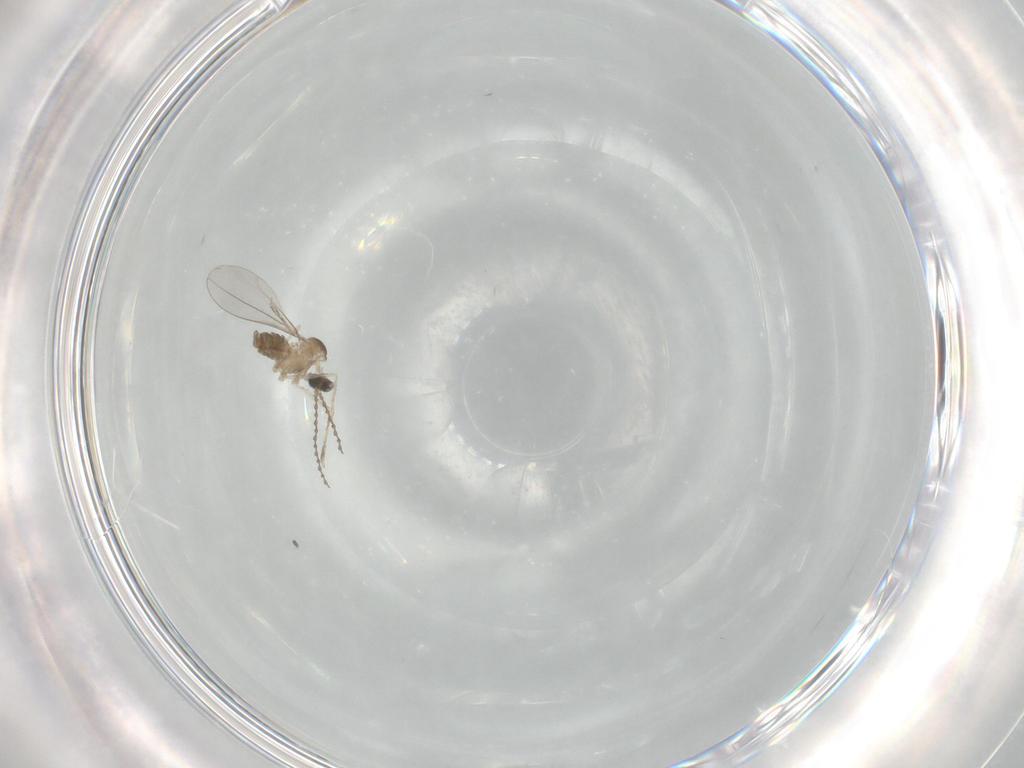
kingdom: Animalia
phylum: Arthropoda
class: Insecta
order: Diptera
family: Cecidomyiidae
